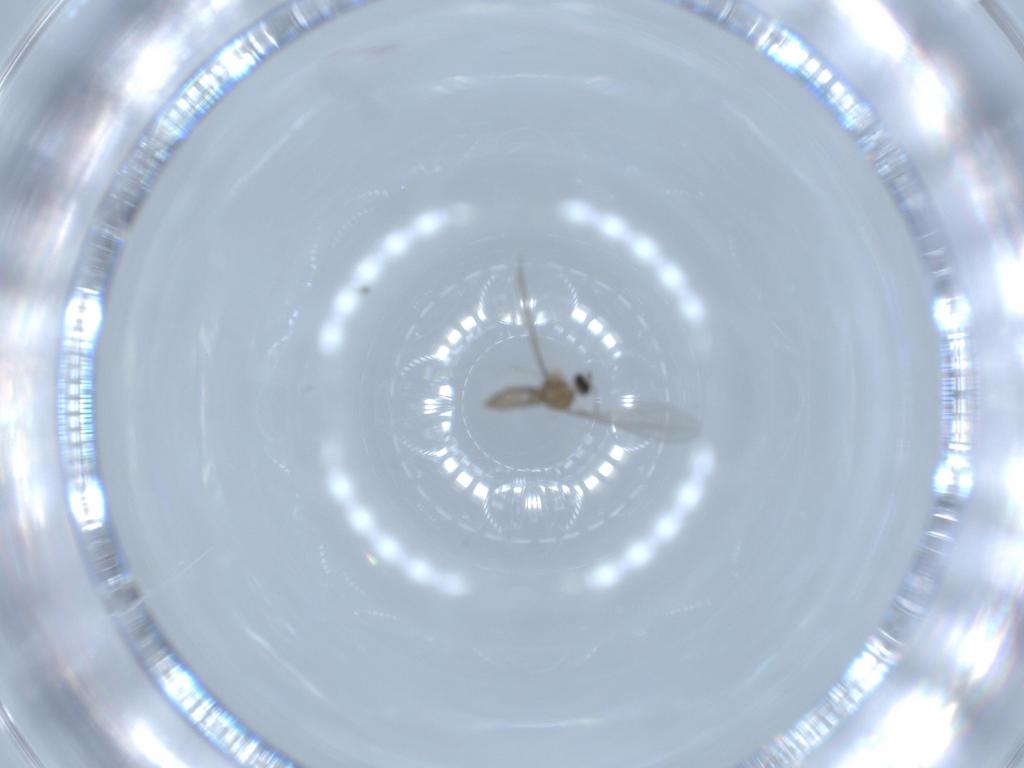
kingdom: Animalia
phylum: Arthropoda
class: Insecta
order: Diptera
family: Cecidomyiidae
